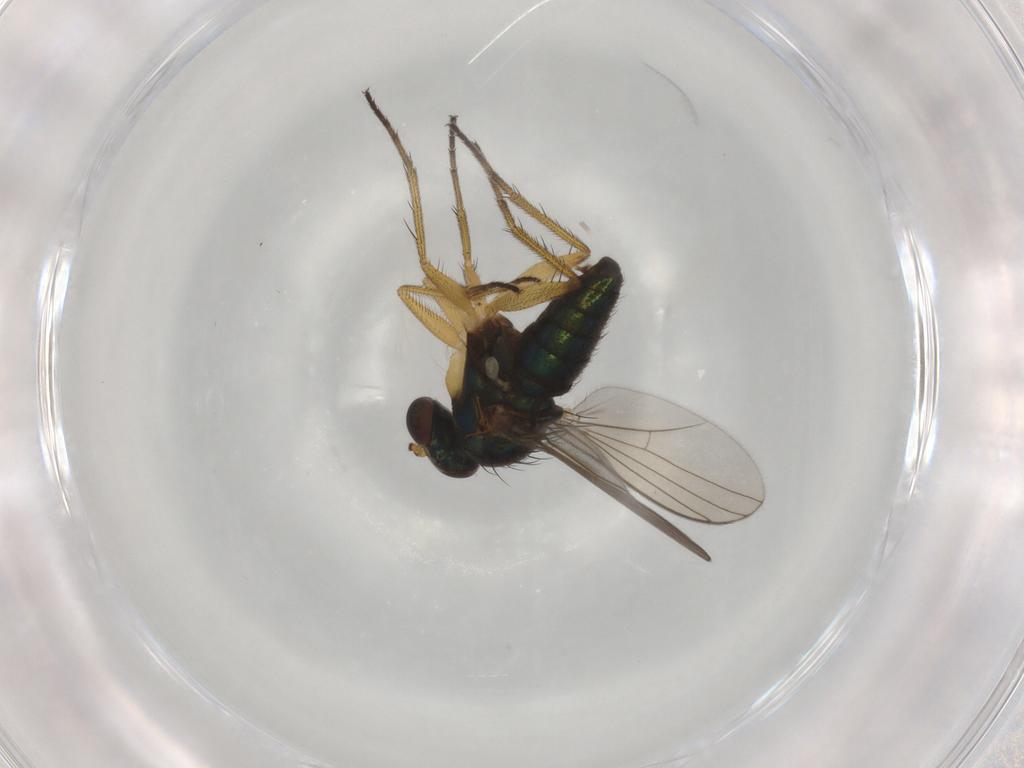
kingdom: Animalia
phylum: Arthropoda
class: Insecta
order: Diptera
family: Dolichopodidae
